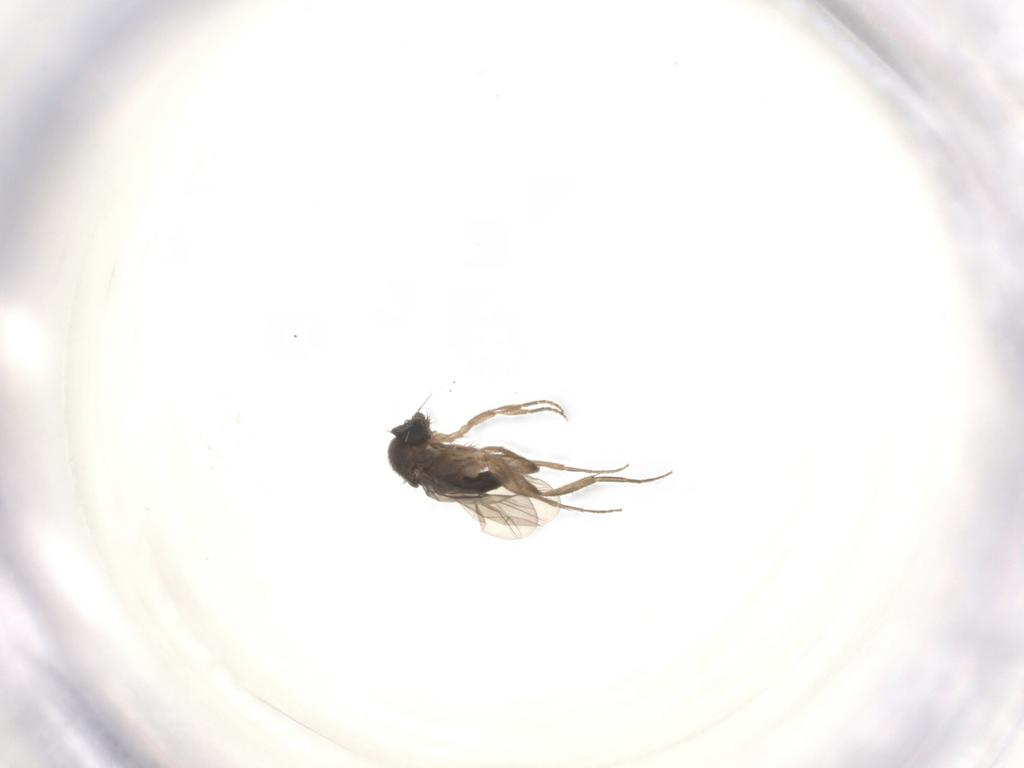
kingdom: Animalia
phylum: Arthropoda
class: Insecta
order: Diptera
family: Phoridae
